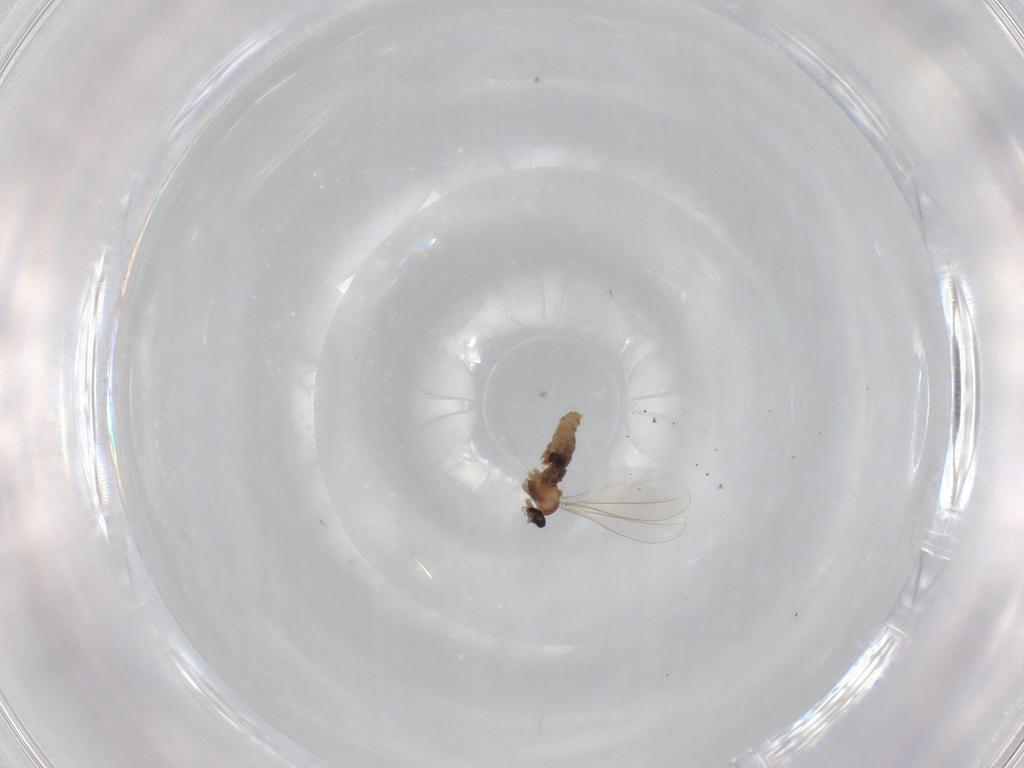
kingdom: Animalia
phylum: Arthropoda
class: Insecta
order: Diptera
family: Cecidomyiidae
